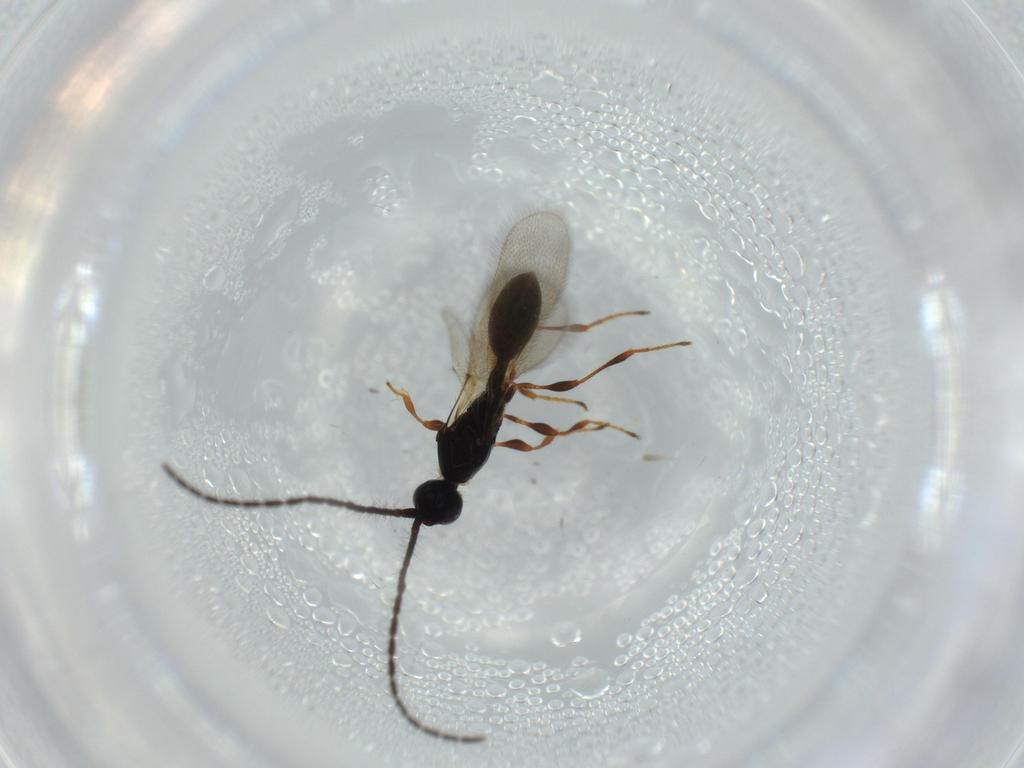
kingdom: Animalia
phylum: Arthropoda
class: Insecta
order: Hymenoptera
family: Diapriidae
